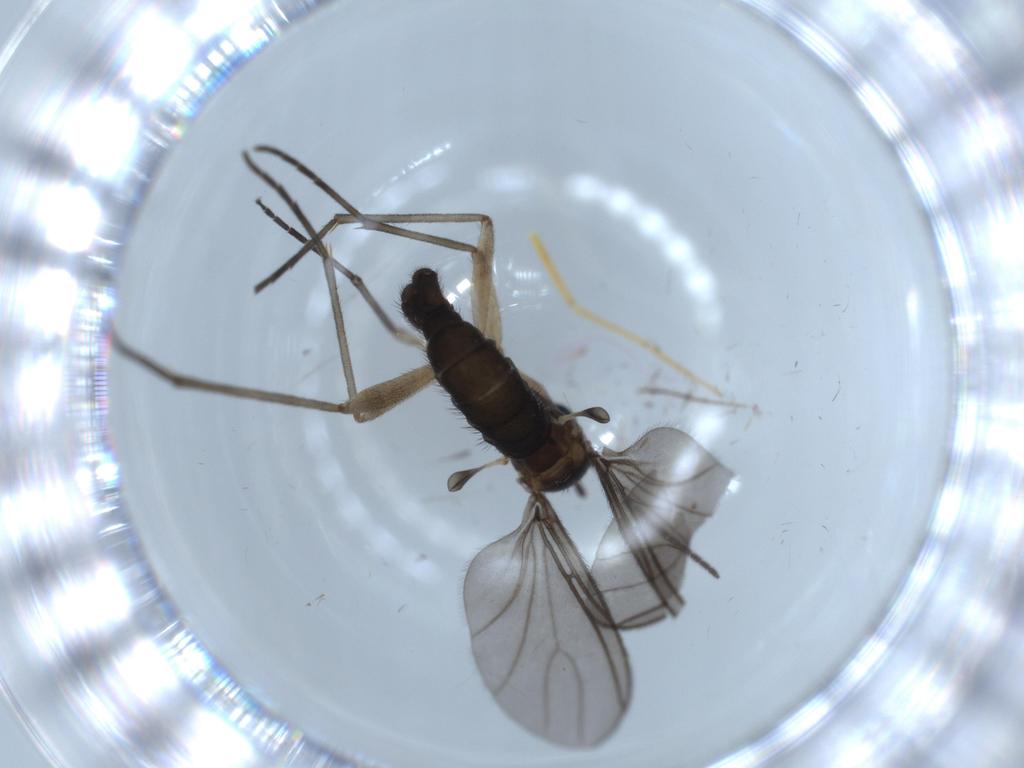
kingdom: Animalia
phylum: Arthropoda
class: Insecta
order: Diptera
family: Sciaridae
